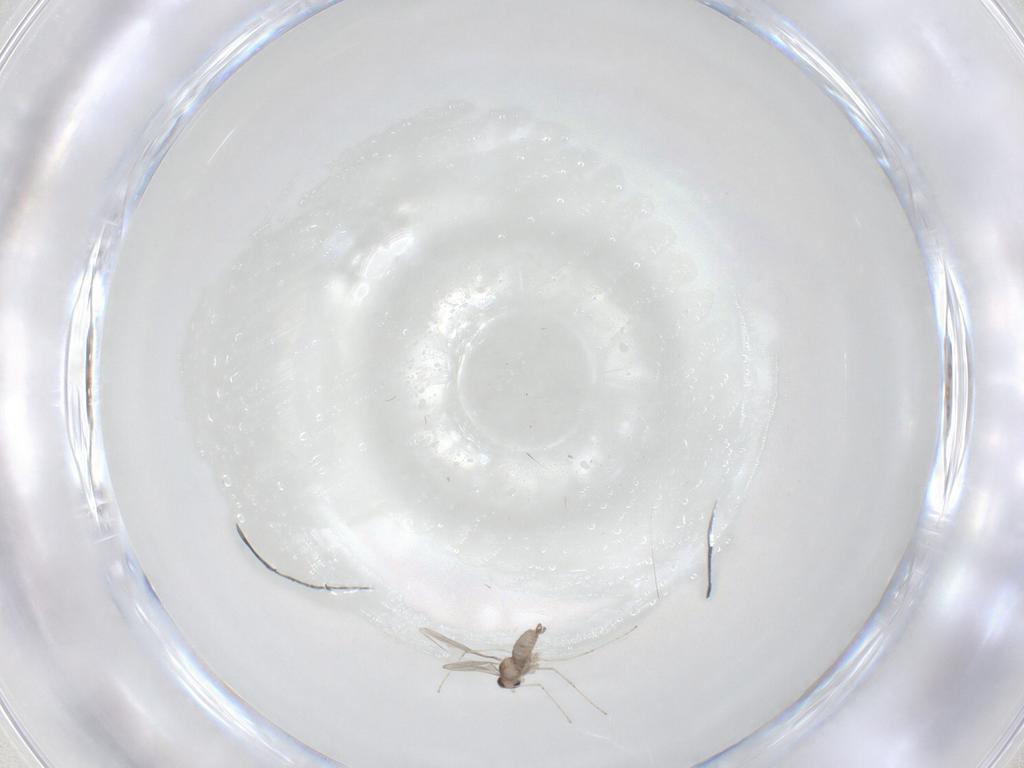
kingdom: Animalia
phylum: Arthropoda
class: Insecta
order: Diptera
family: Cecidomyiidae
